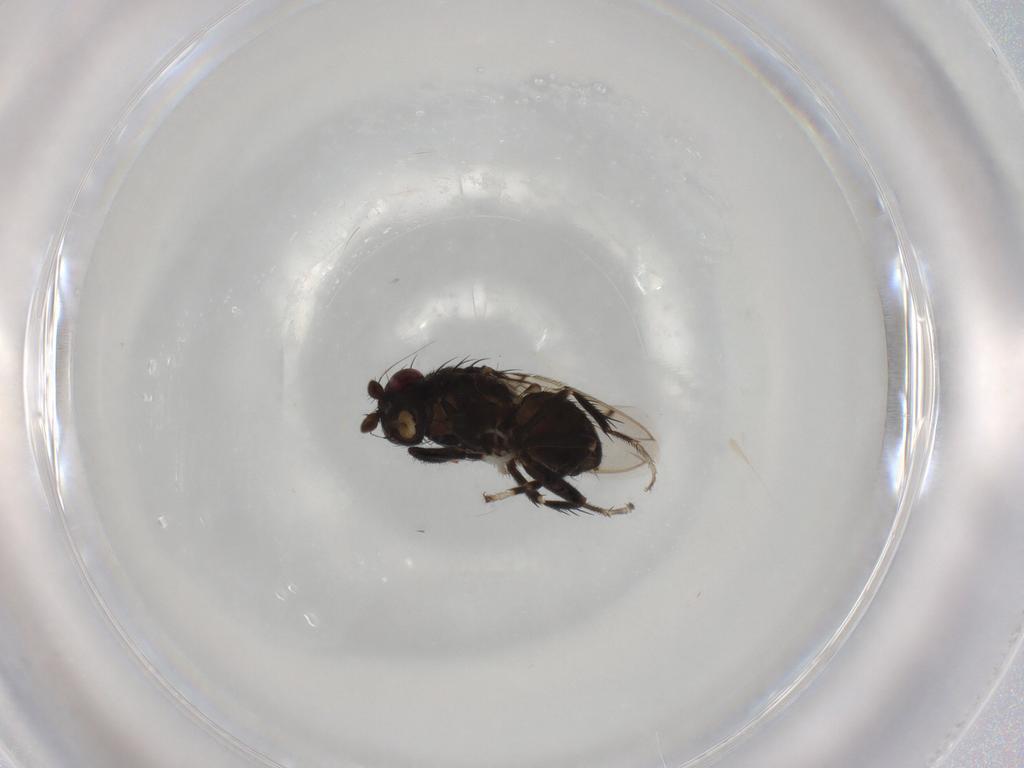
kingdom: Animalia
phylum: Arthropoda
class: Insecta
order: Diptera
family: Sphaeroceridae
